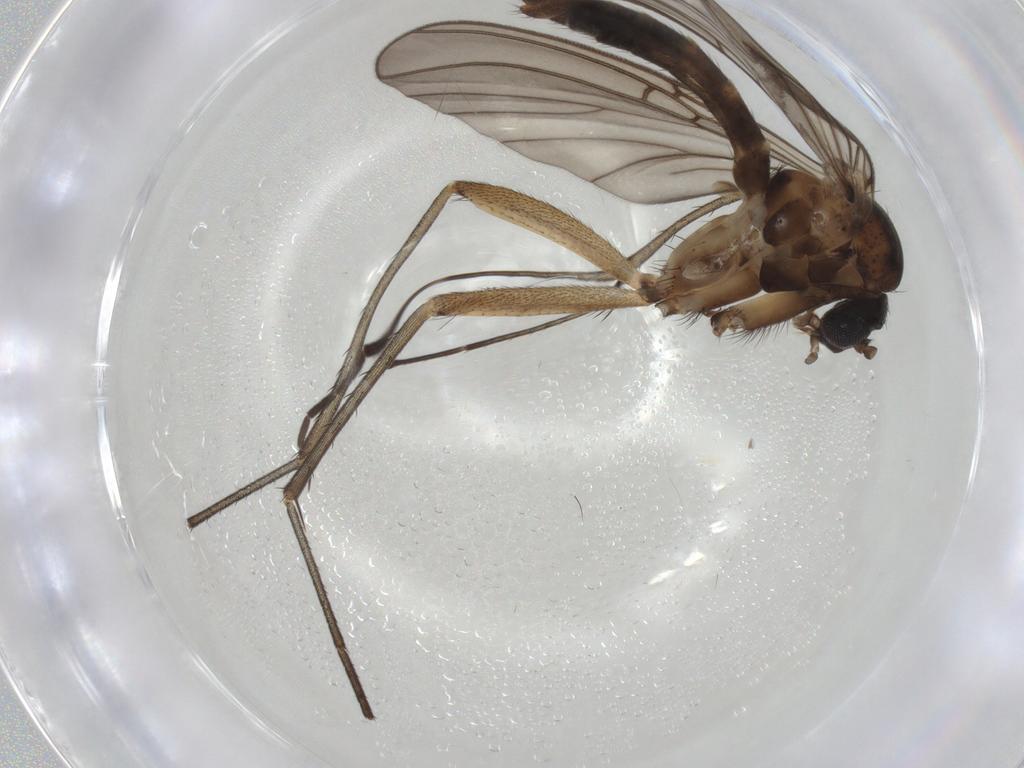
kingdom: Animalia
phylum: Arthropoda
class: Insecta
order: Diptera
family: Mycetophilidae
